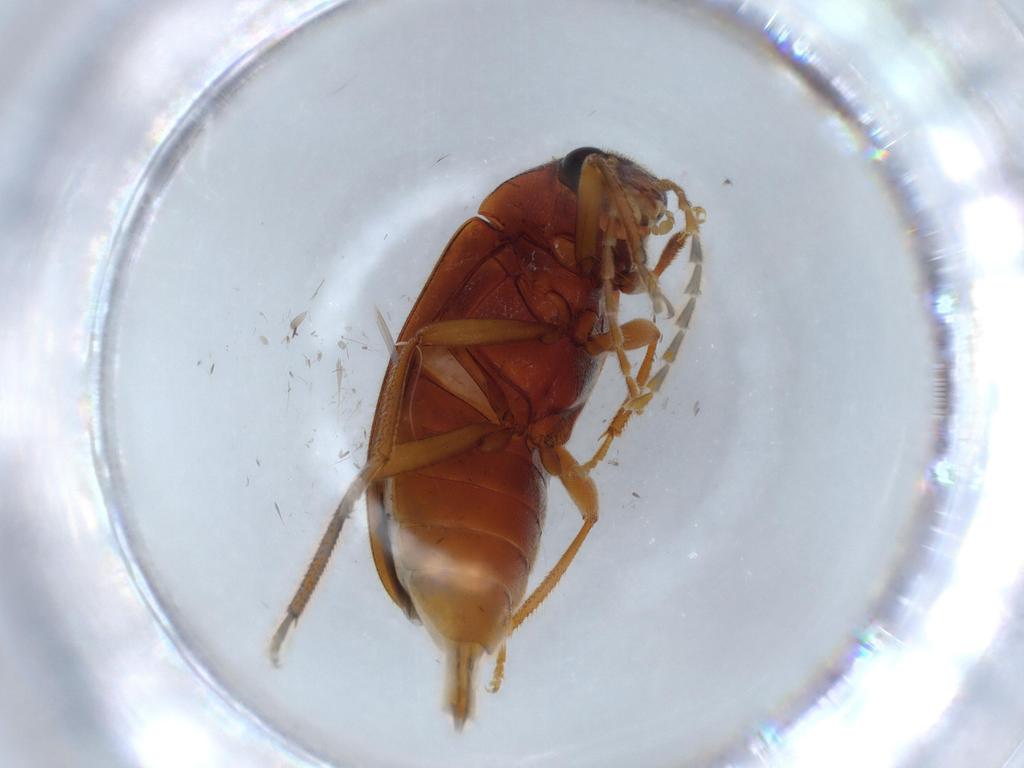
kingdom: Animalia
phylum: Arthropoda
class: Insecta
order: Coleoptera
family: Ptilodactylidae
